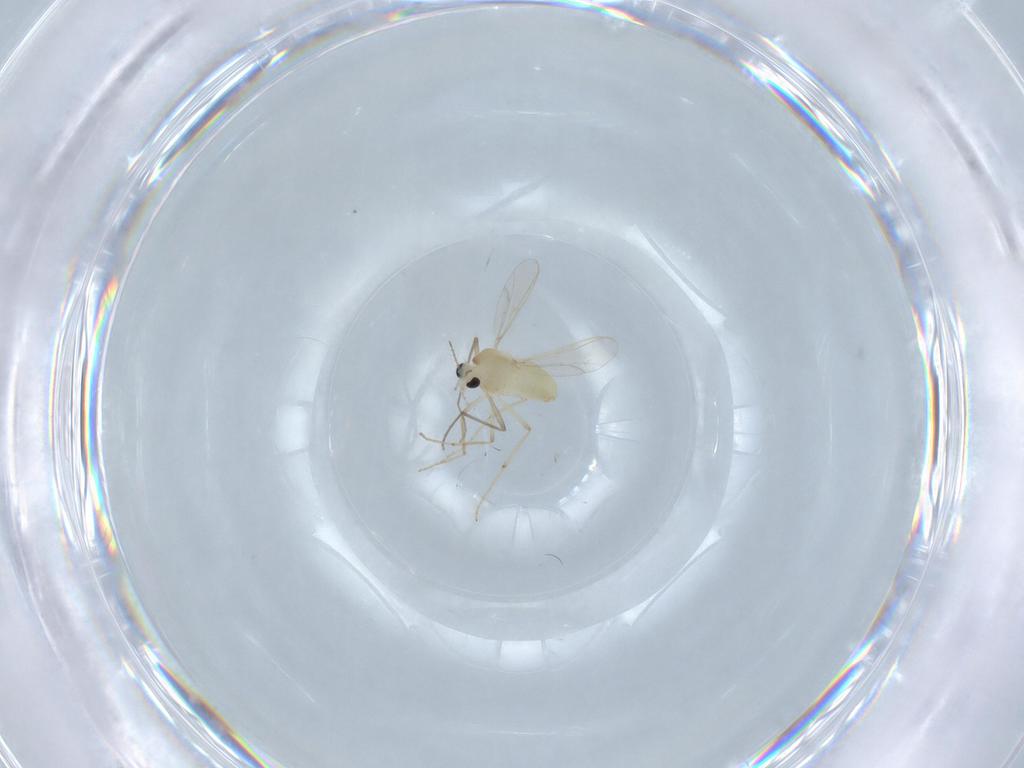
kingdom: Animalia
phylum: Arthropoda
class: Insecta
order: Diptera
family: Chironomidae
